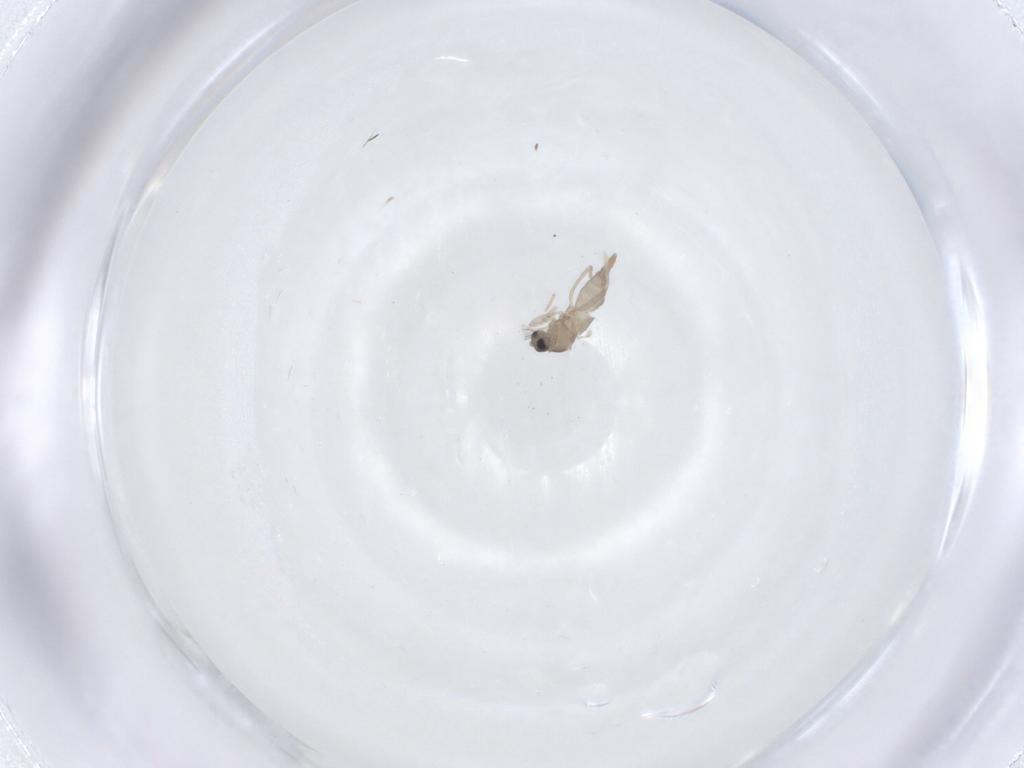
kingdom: Animalia
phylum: Arthropoda
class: Insecta
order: Diptera
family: Cecidomyiidae
